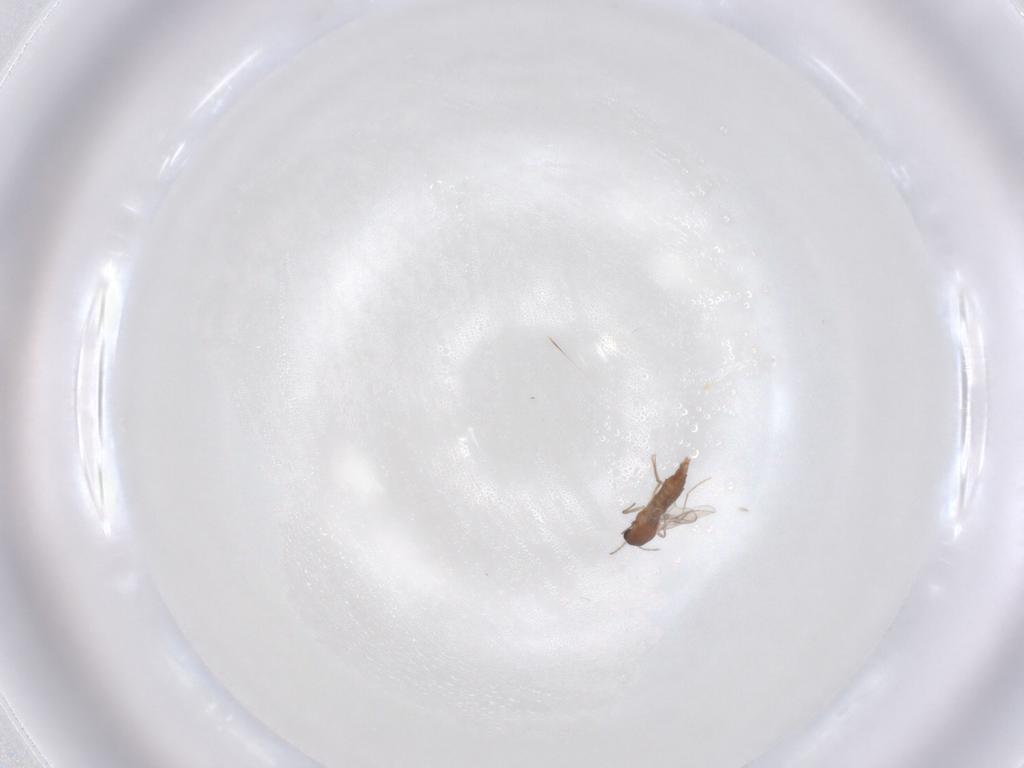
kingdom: Animalia
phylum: Arthropoda
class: Insecta
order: Diptera
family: Chironomidae
